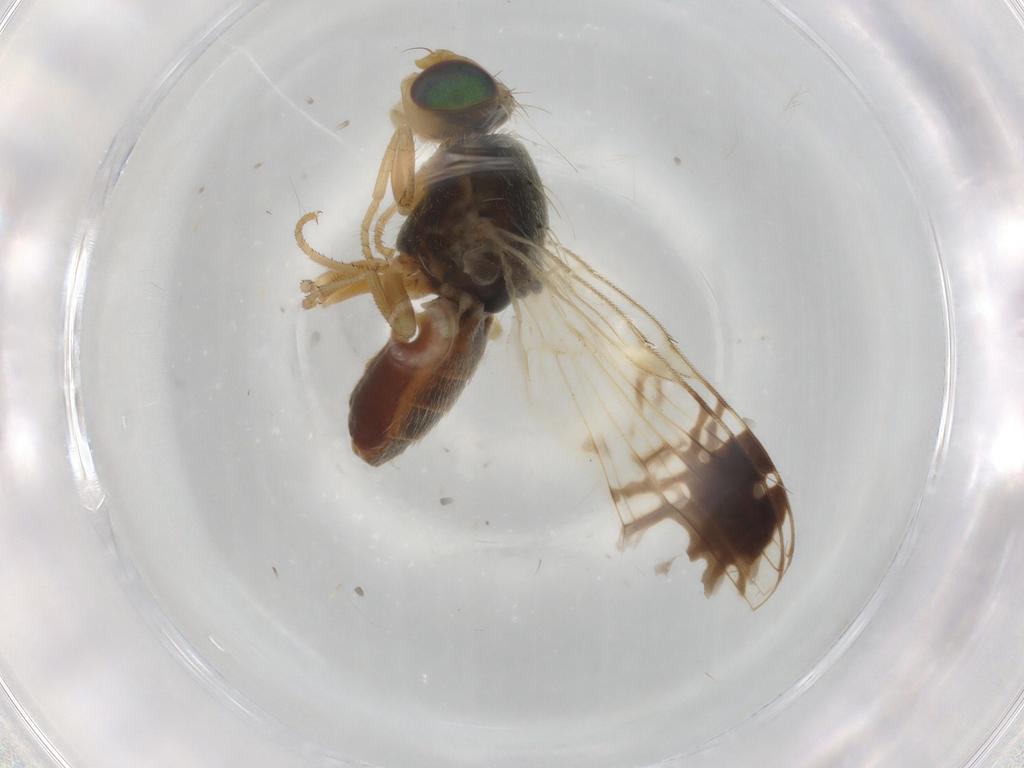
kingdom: Animalia
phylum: Arthropoda
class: Insecta
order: Diptera
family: Tephritidae
